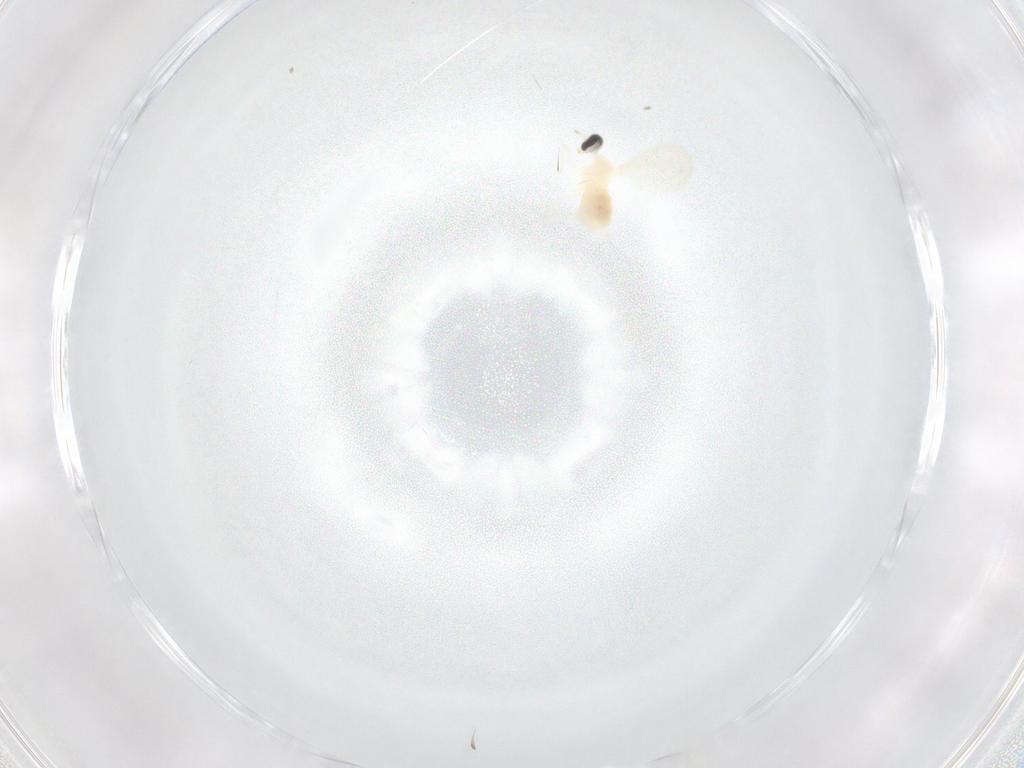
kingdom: Animalia
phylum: Arthropoda
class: Insecta
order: Diptera
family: Cecidomyiidae
